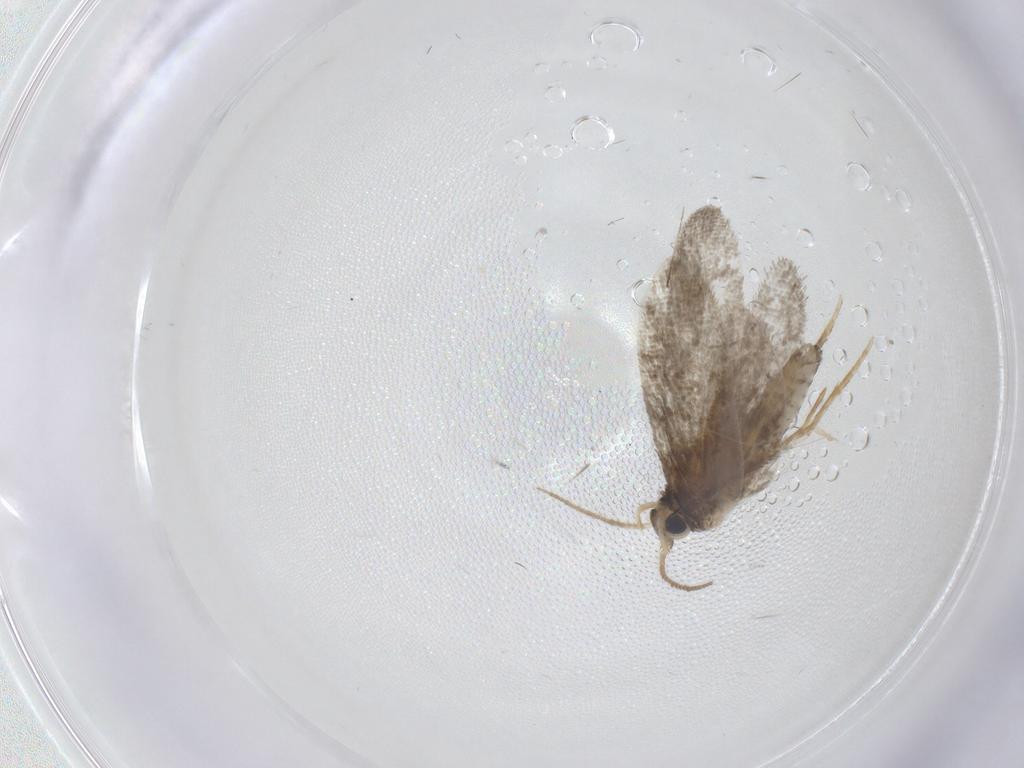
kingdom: Animalia
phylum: Arthropoda
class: Insecta
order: Lepidoptera
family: Psychidae
